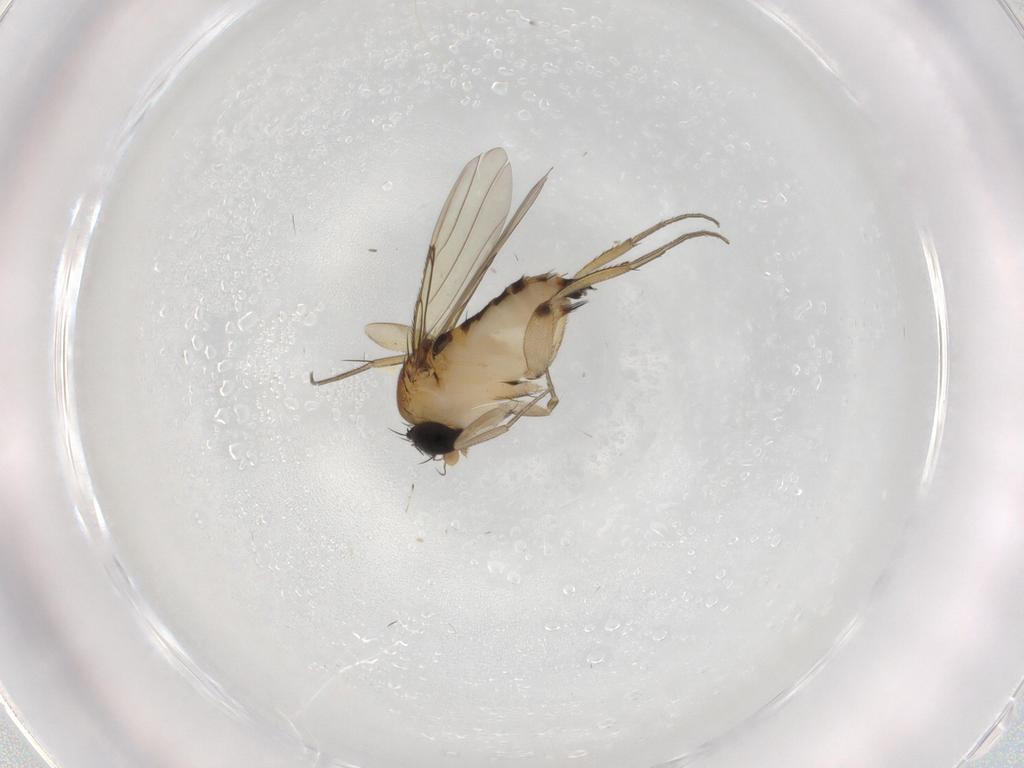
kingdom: Animalia
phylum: Arthropoda
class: Insecta
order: Diptera
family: Phoridae
